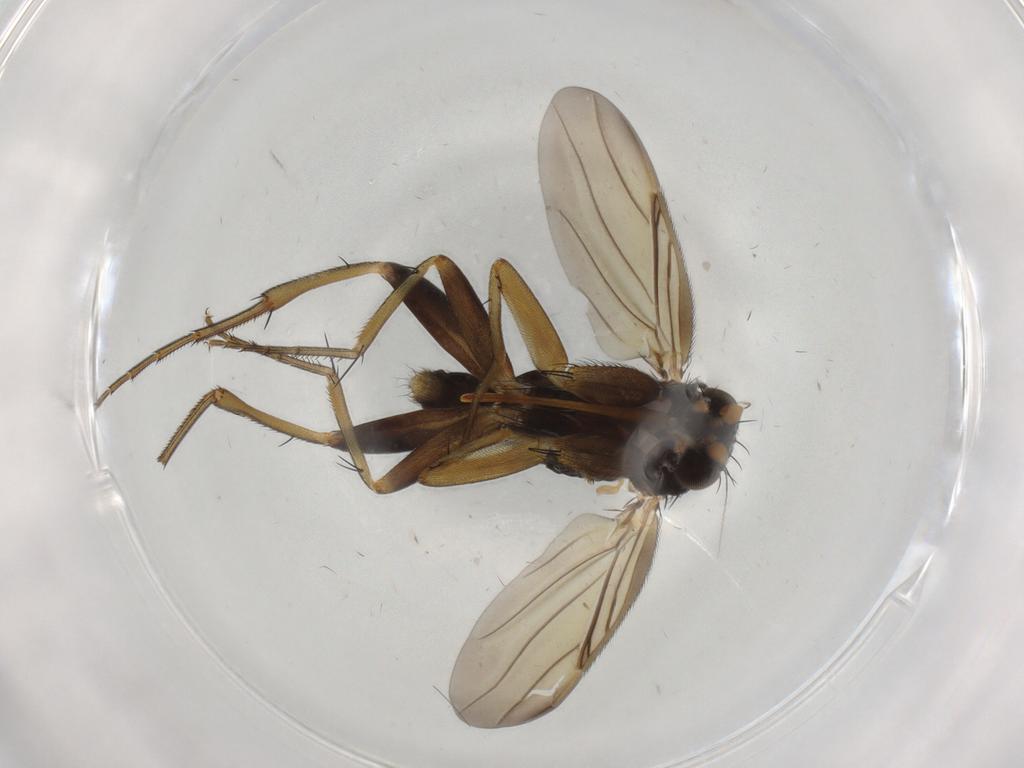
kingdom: Animalia
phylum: Arthropoda
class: Insecta
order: Diptera
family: Phoridae
